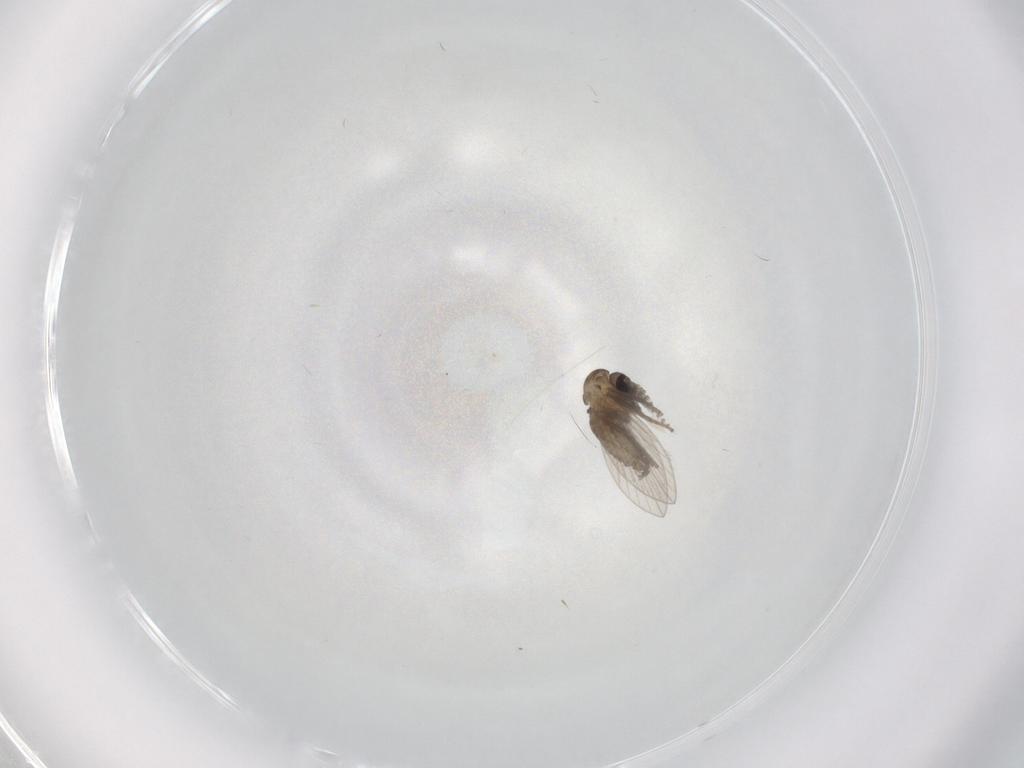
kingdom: Animalia
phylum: Arthropoda
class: Insecta
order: Diptera
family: Psychodidae
